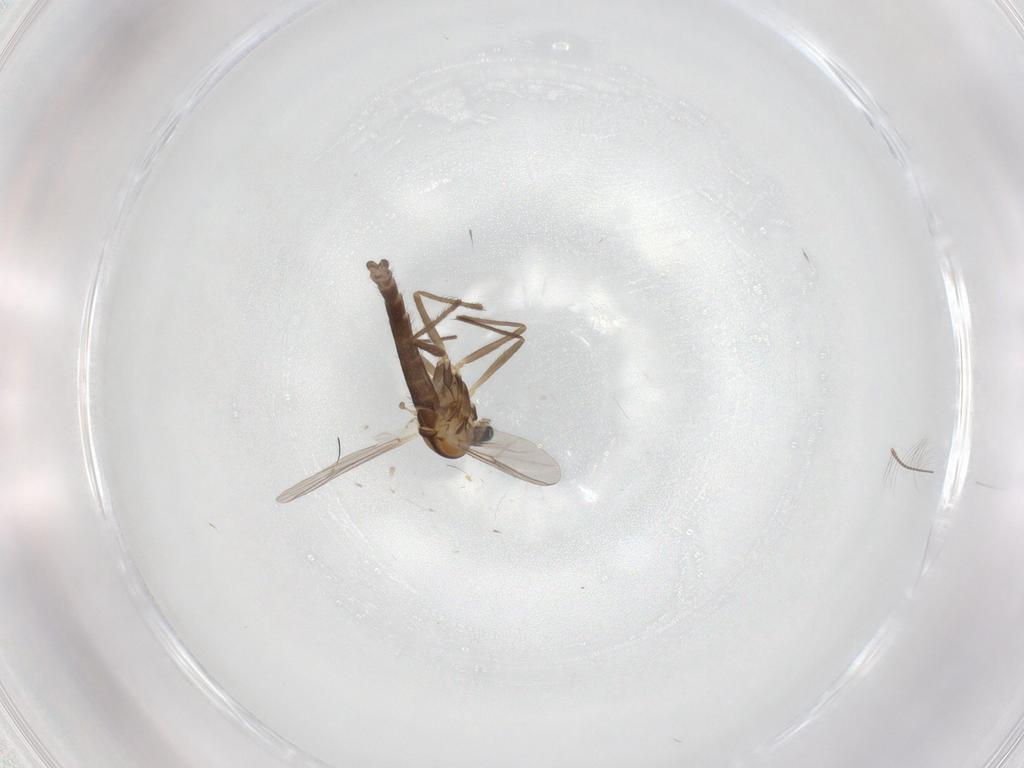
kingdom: Animalia
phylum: Arthropoda
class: Insecta
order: Diptera
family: Chironomidae
